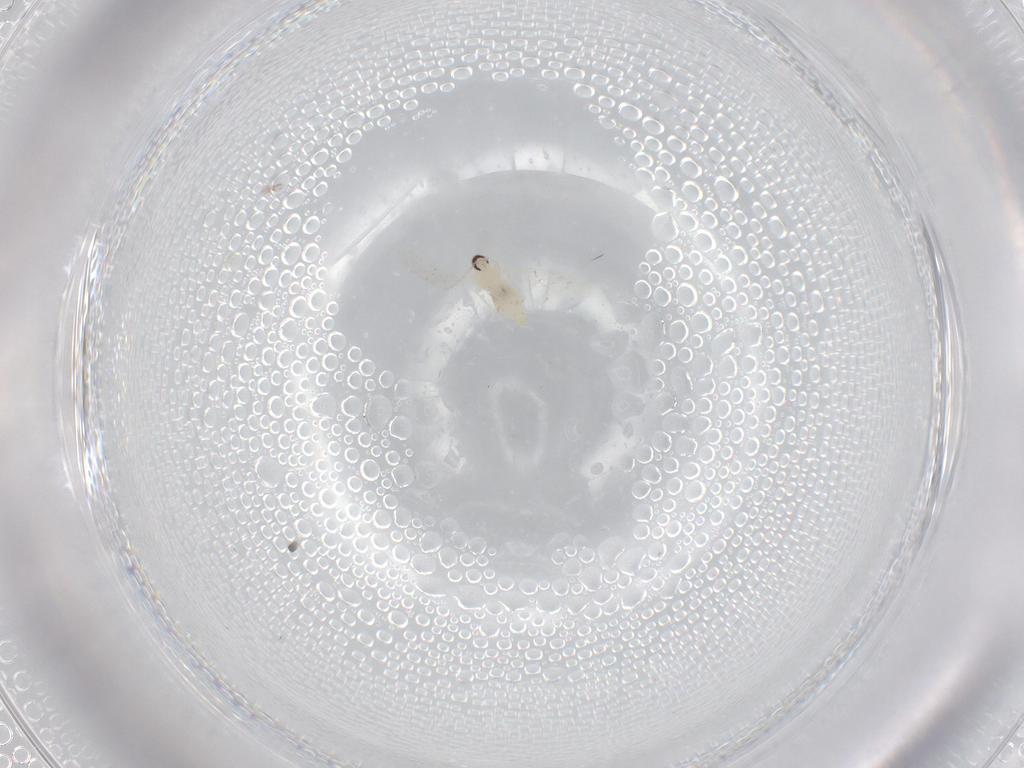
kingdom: Animalia
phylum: Arthropoda
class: Insecta
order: Diptera
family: Cecidomyiidae
